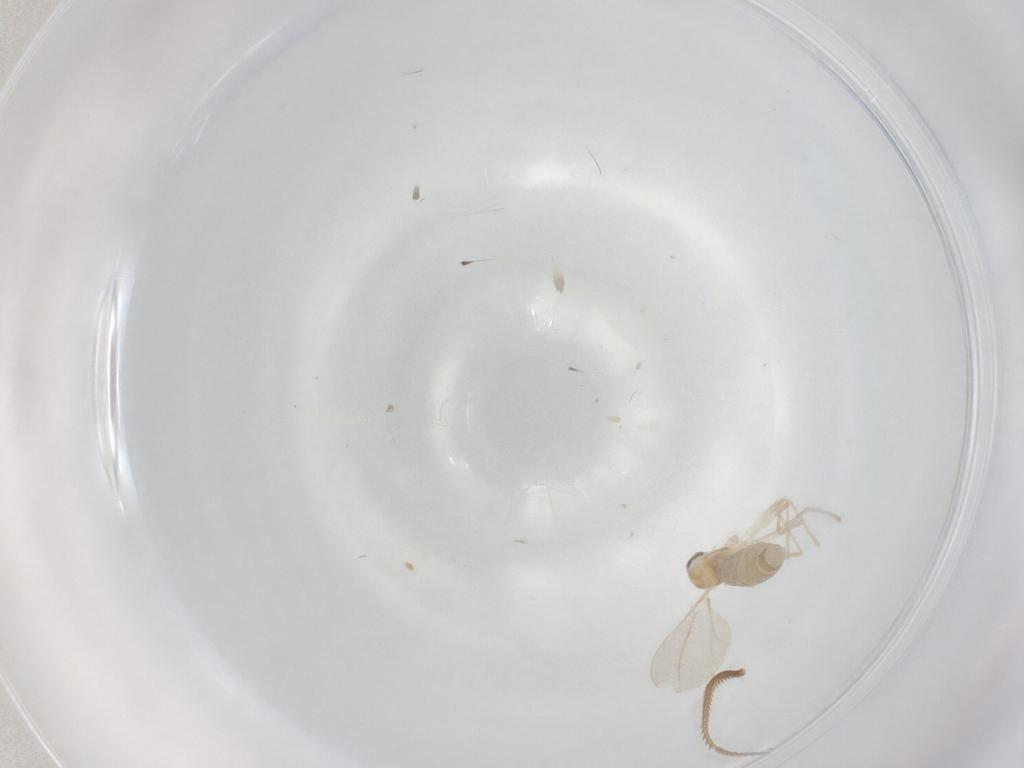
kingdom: Animalia
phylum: Arthropoda
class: Insecta
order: Diptera
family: Cecidomyiidae
